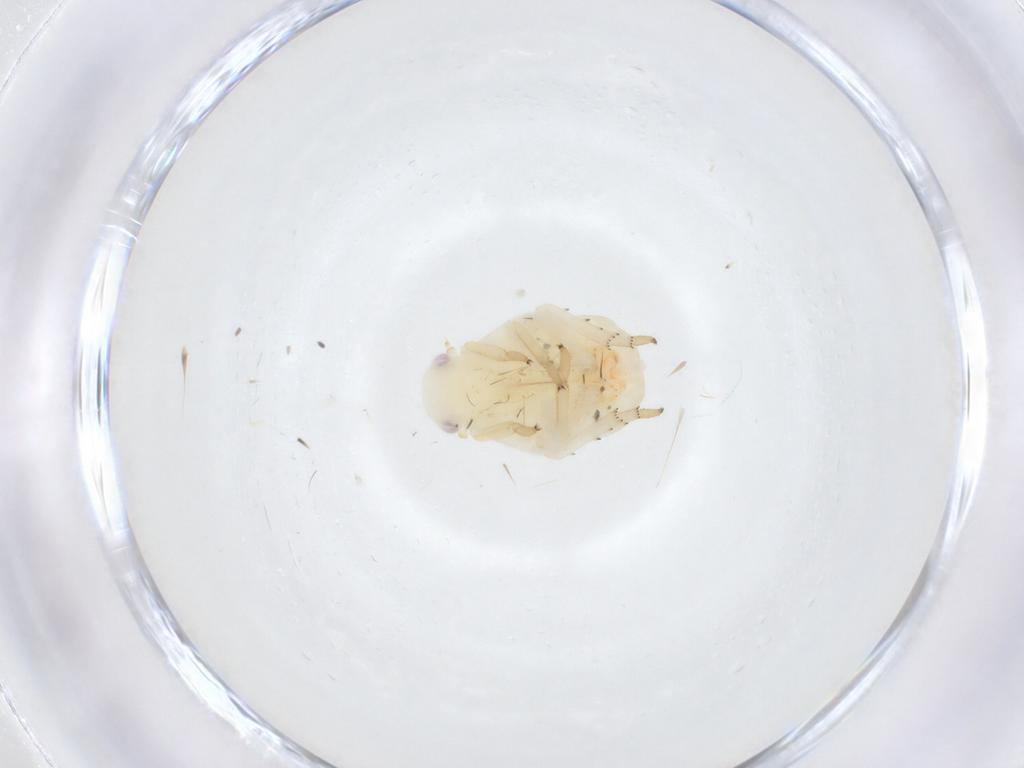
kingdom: Animalia
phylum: Arthropoda
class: Insecta
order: Hemiptera
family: Flatidae
